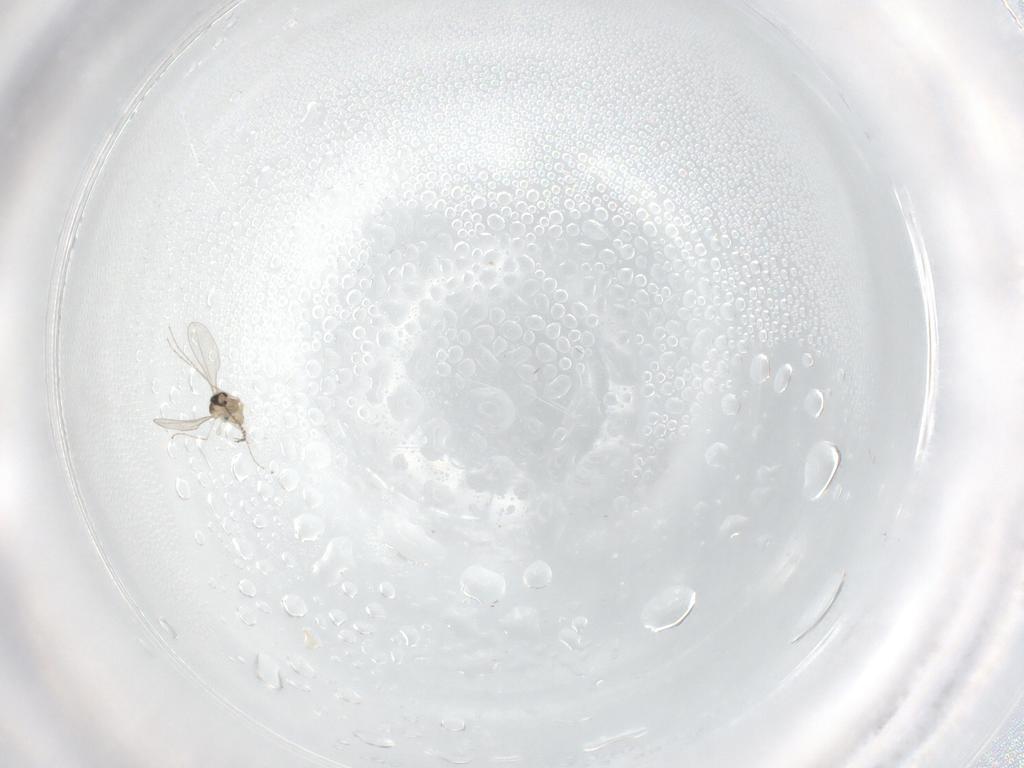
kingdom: Animalia
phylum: Arthropoda
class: Insecta
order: Diptera
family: Cecidomyiidae
